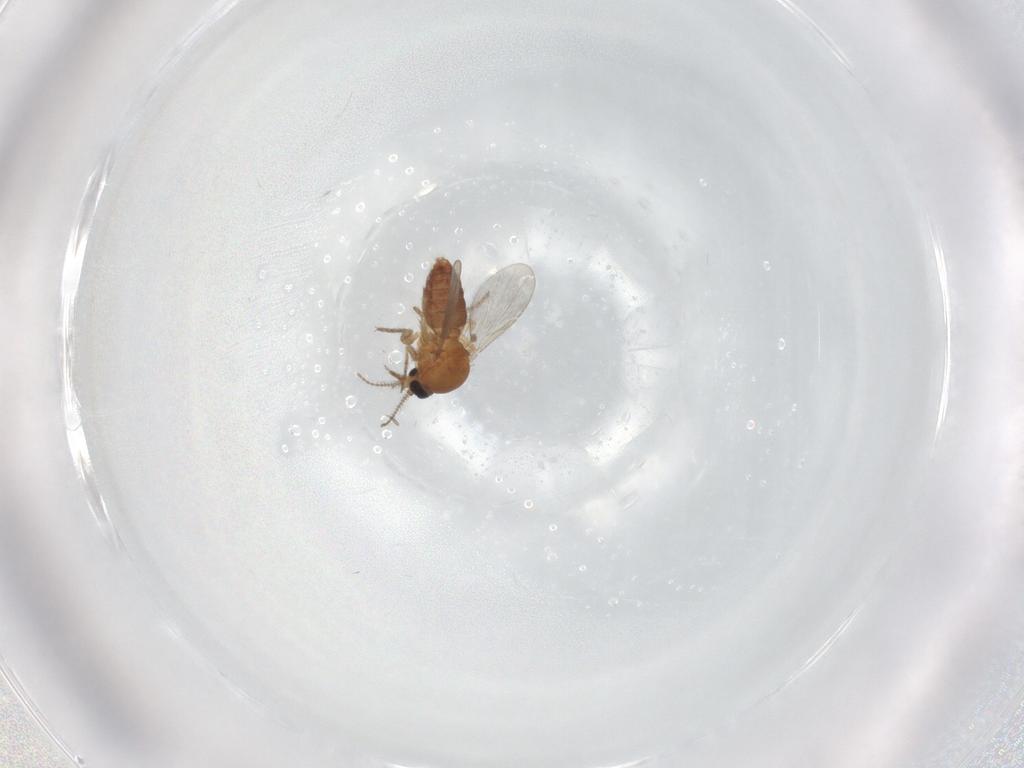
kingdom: Animalia
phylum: Arthropoda
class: Insecta
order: Diptera
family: Ceratopogonidae
